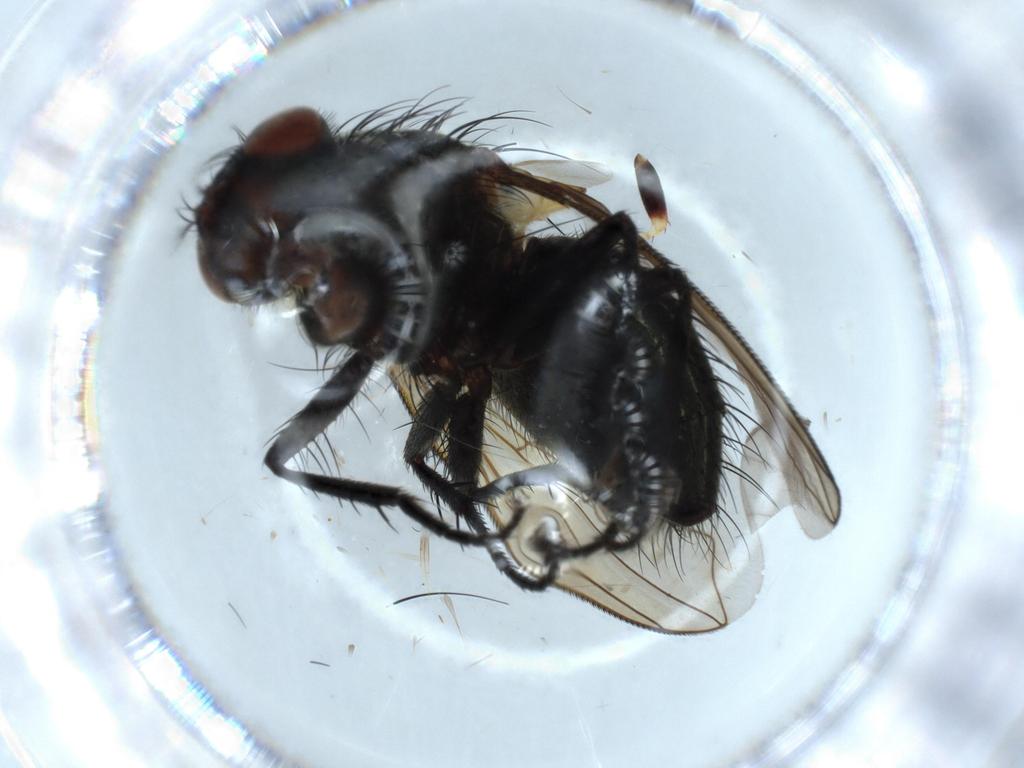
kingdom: Animalia
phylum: Arthropoda
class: Insecta
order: Diptera
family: Polleniidae
